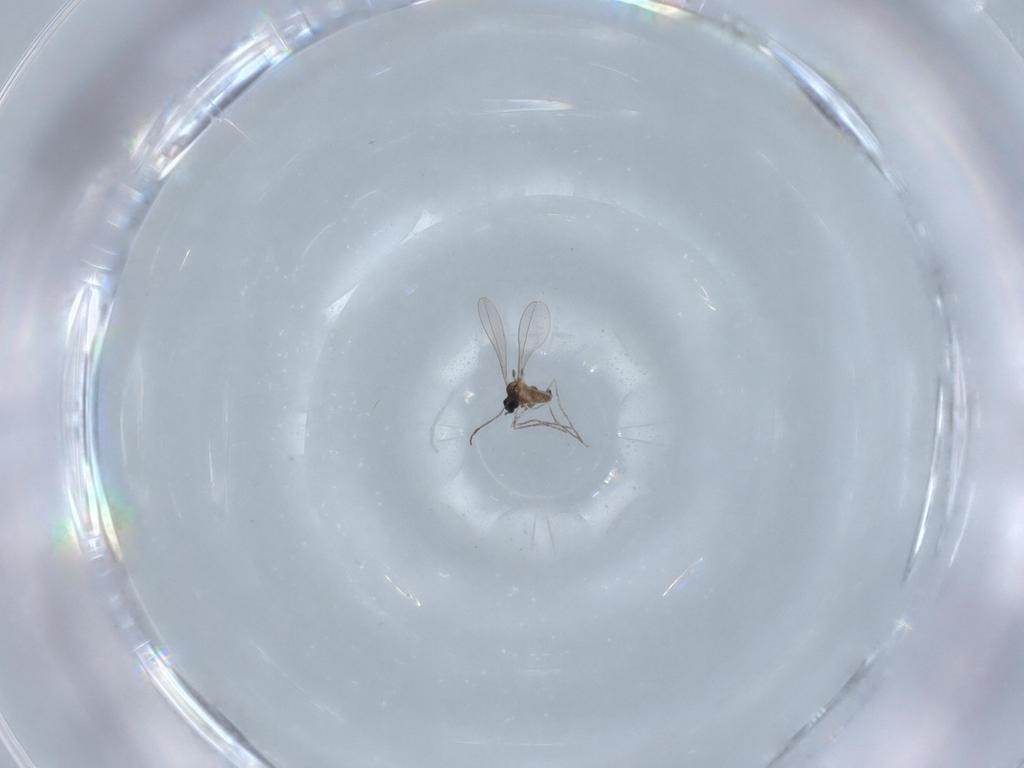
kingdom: Animalia
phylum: Arthropoda
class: Insecta
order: Diptera
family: Cecidomyiidae
